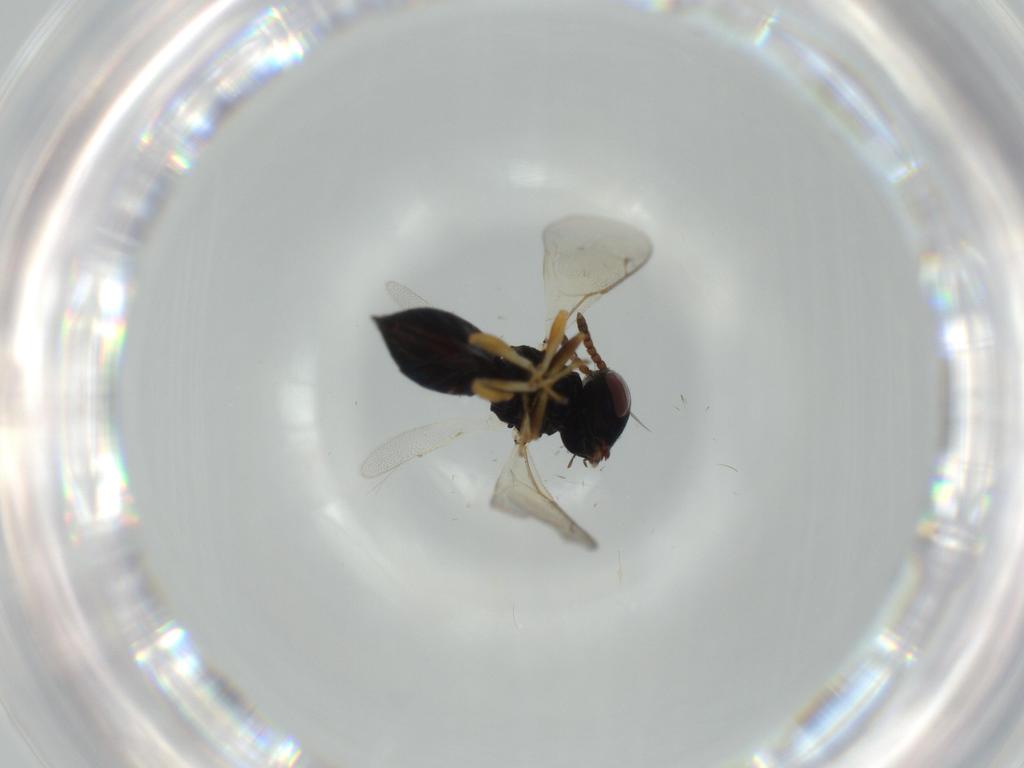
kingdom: Animalia
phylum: Arthropoda
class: Insecta
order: Hymenoptera
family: Pteromalidae
